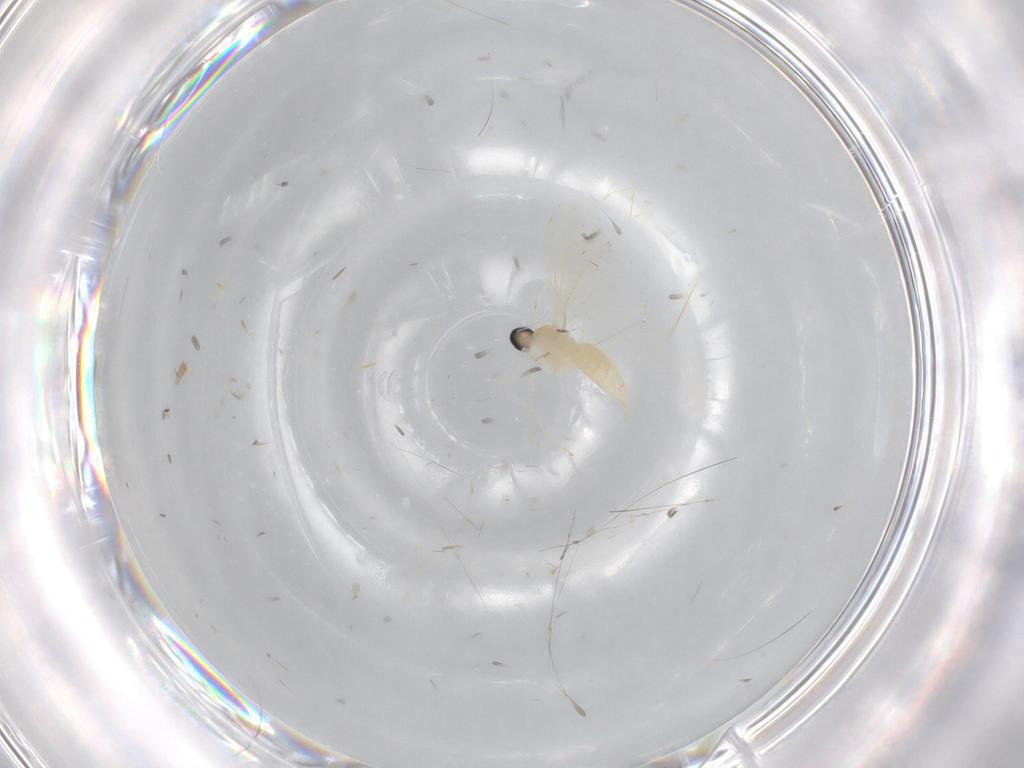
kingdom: Animalia
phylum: Arthropoda
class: Insecta
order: Diptera
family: Cecidomyiidae
